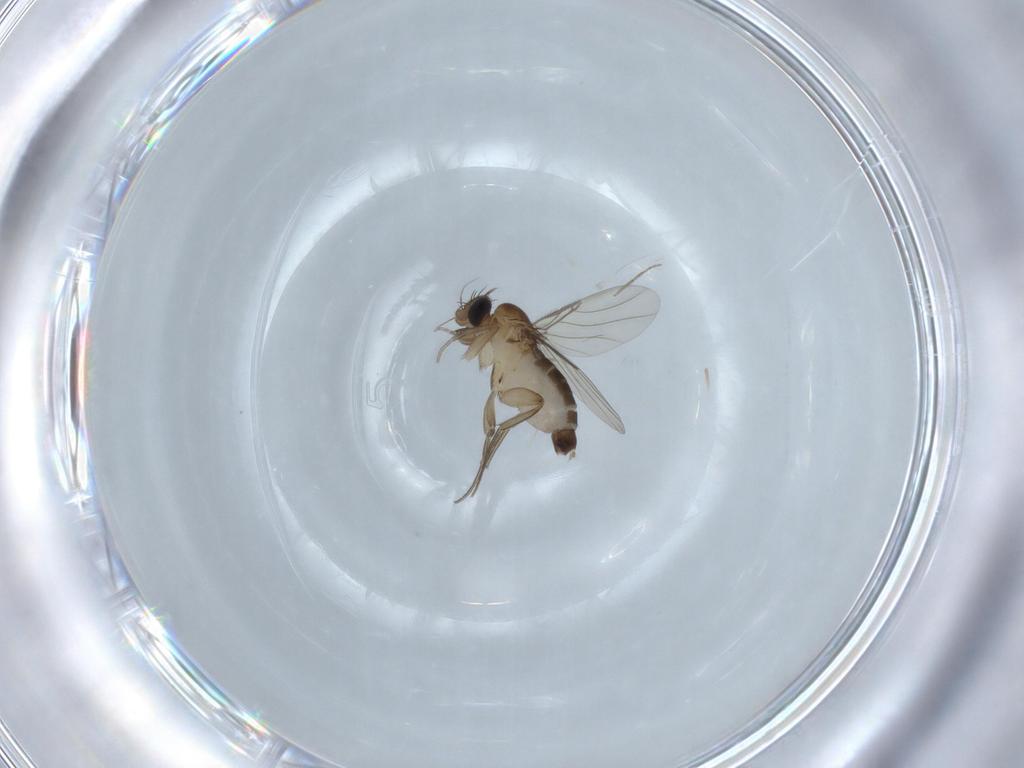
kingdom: Animalia
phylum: Arthropoda
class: Insecta
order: Diptera
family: Phoridae
